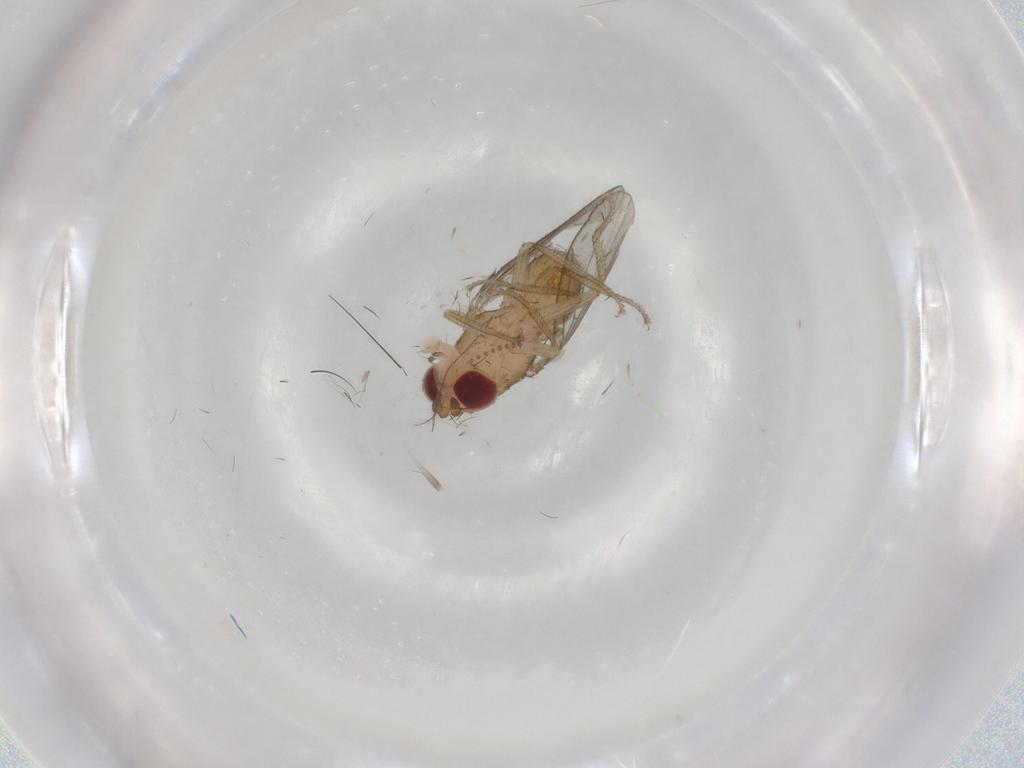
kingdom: Animalia
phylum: Arthropoda
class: Insecta
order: Diptera
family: Drosophilidae
